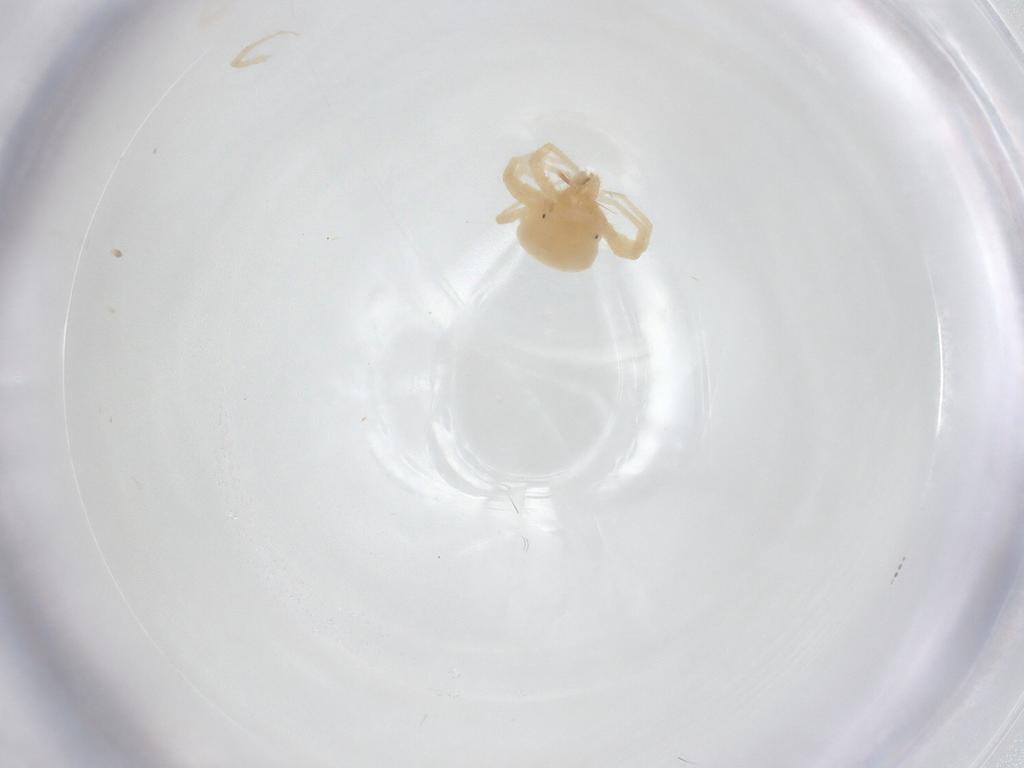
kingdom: Animalia
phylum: Arthropoda
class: Arachnida
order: Trombidiformes
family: Anystidae
